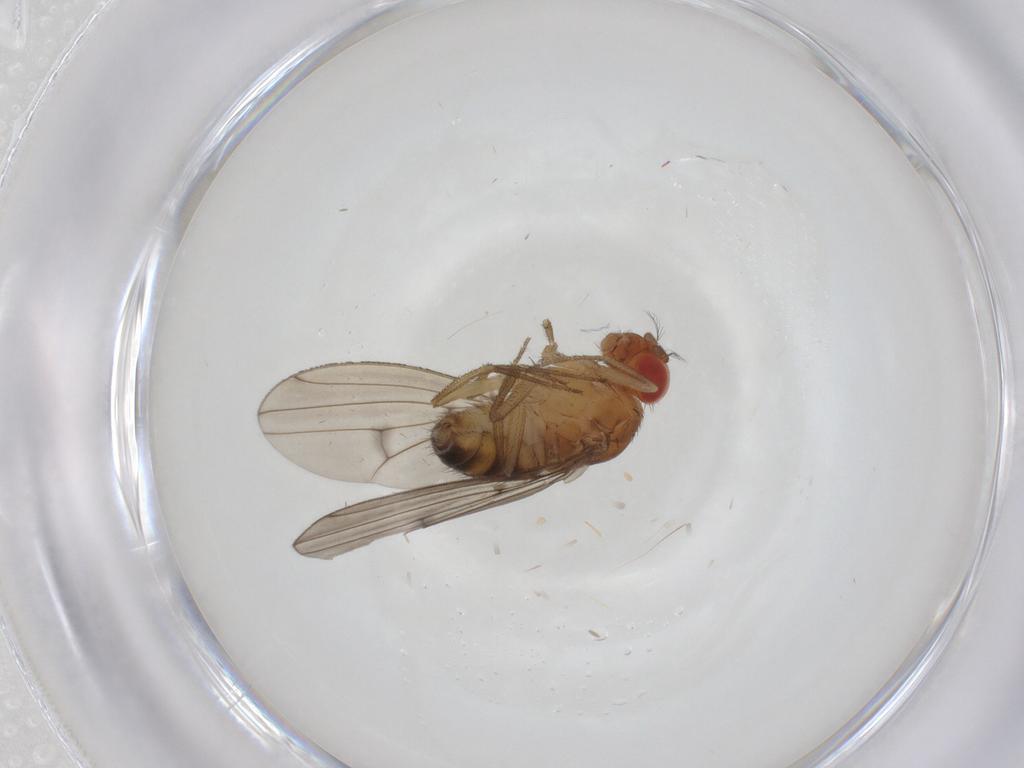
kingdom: Animalia
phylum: Arthropoda
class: Insecta
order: Diptera
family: Drosophilidae
